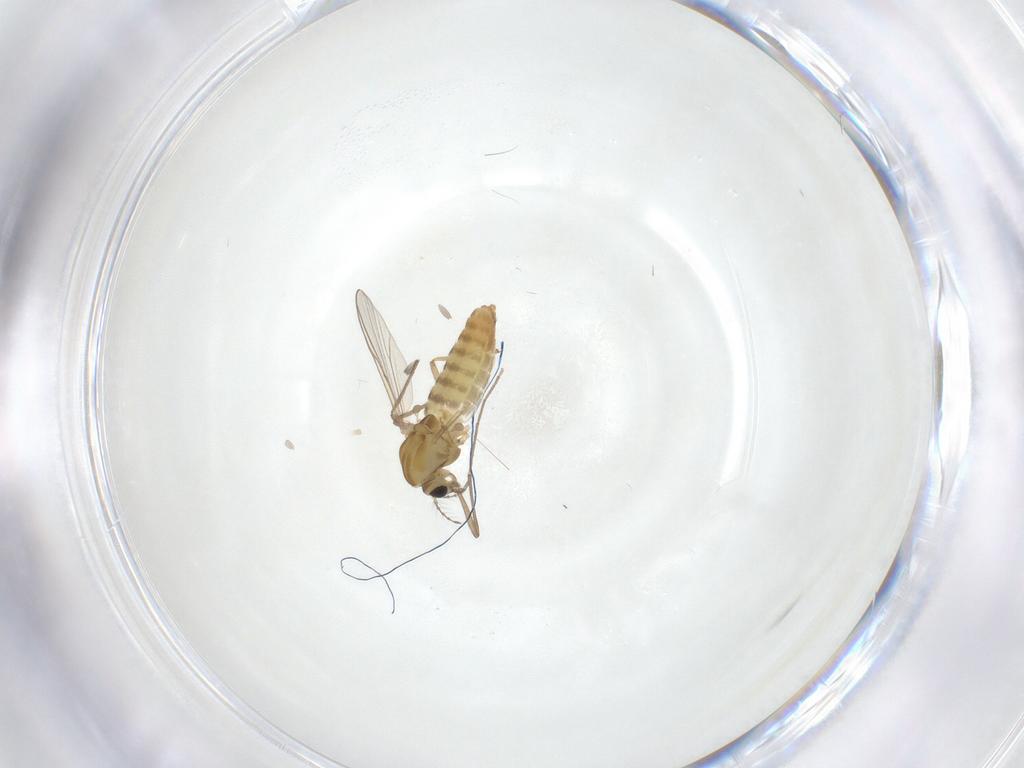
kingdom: Animalia
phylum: Arthropoda
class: Insecta
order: Diptera
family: Chironomidae
